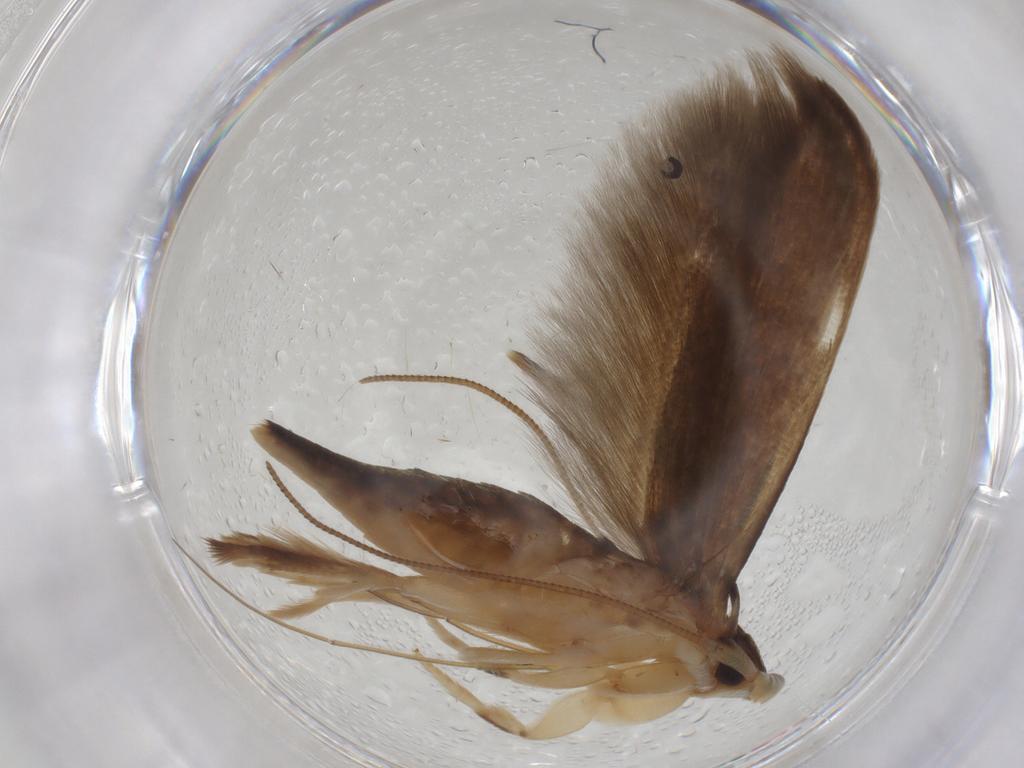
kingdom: Animalia
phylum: Arthropoda
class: Insecta
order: Lepidoptera
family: Tineidae
